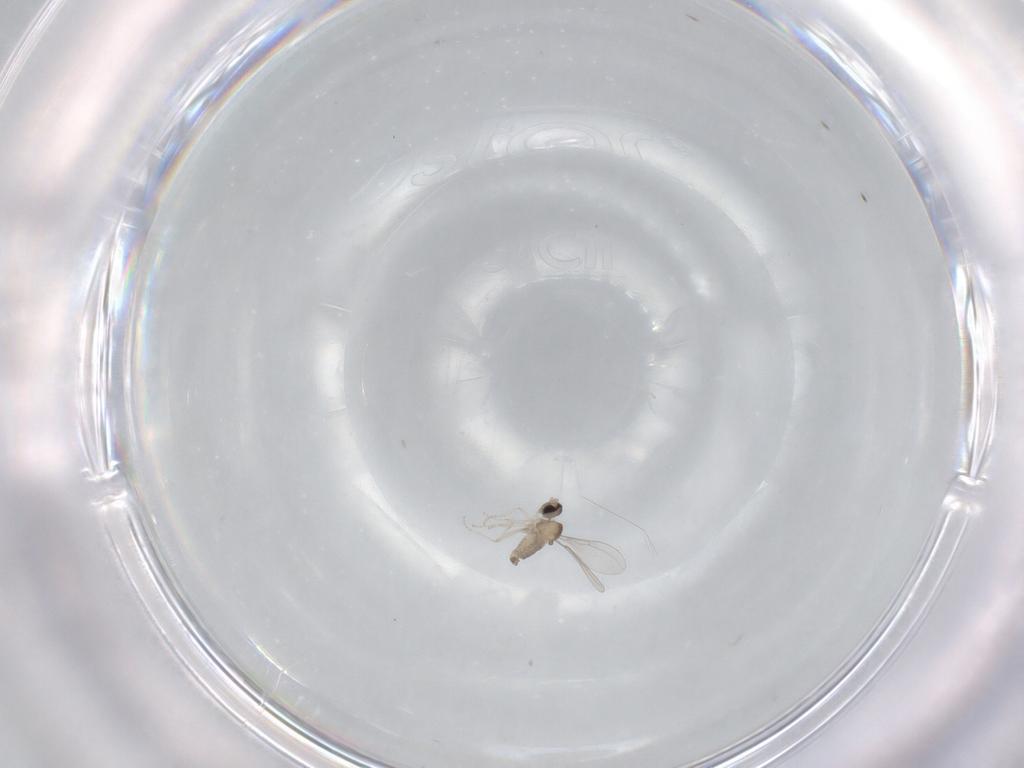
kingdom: Animalia
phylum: Arthropoda
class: Insecta
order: Diptera
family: Cecidomyiidae
